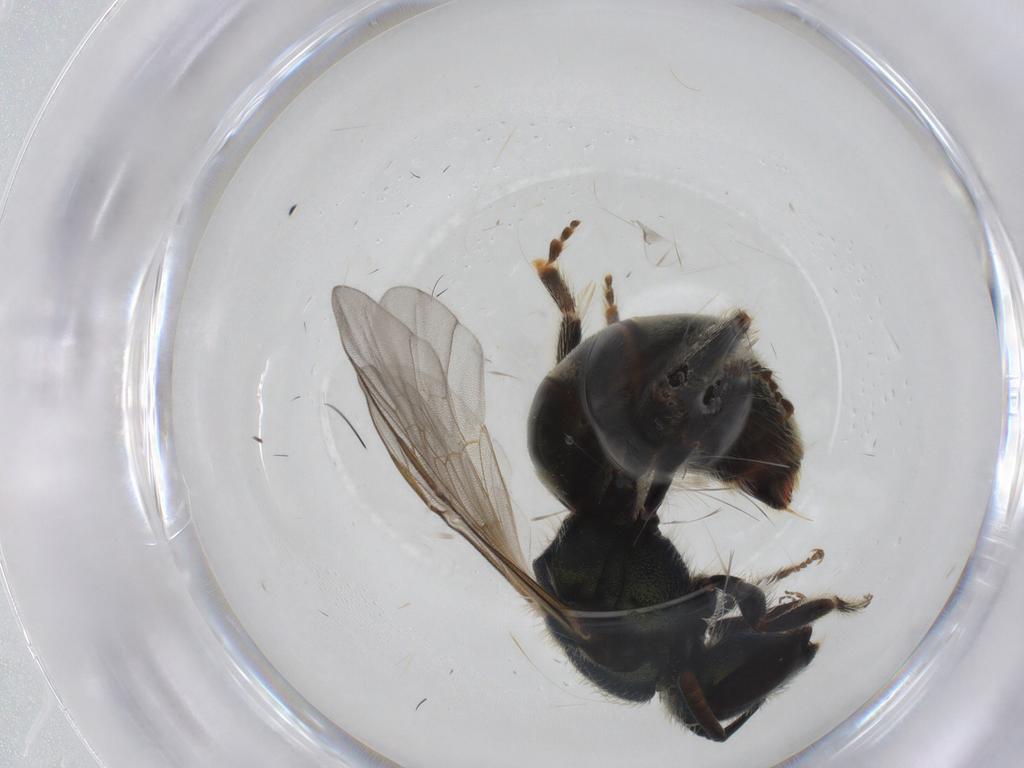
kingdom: Animalia
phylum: Arthropoda
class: Insecta
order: Hymenoptera
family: Halictidae
